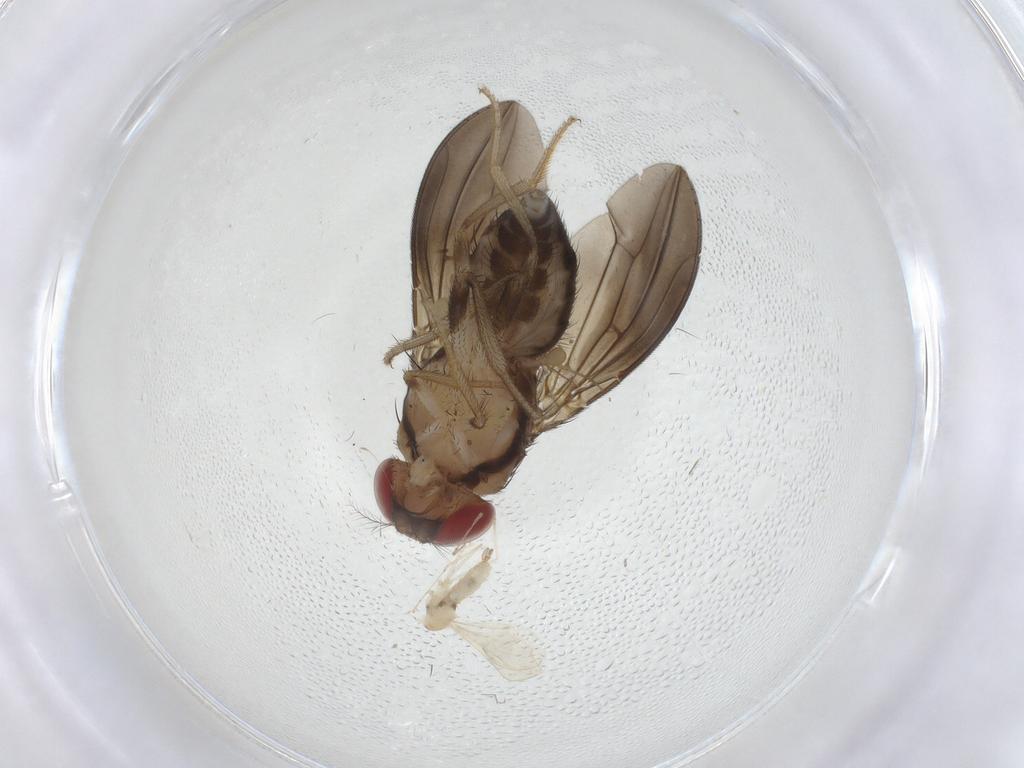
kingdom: Animalia
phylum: Arthropoda
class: Insecta
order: Diptera
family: Drosophilidae
